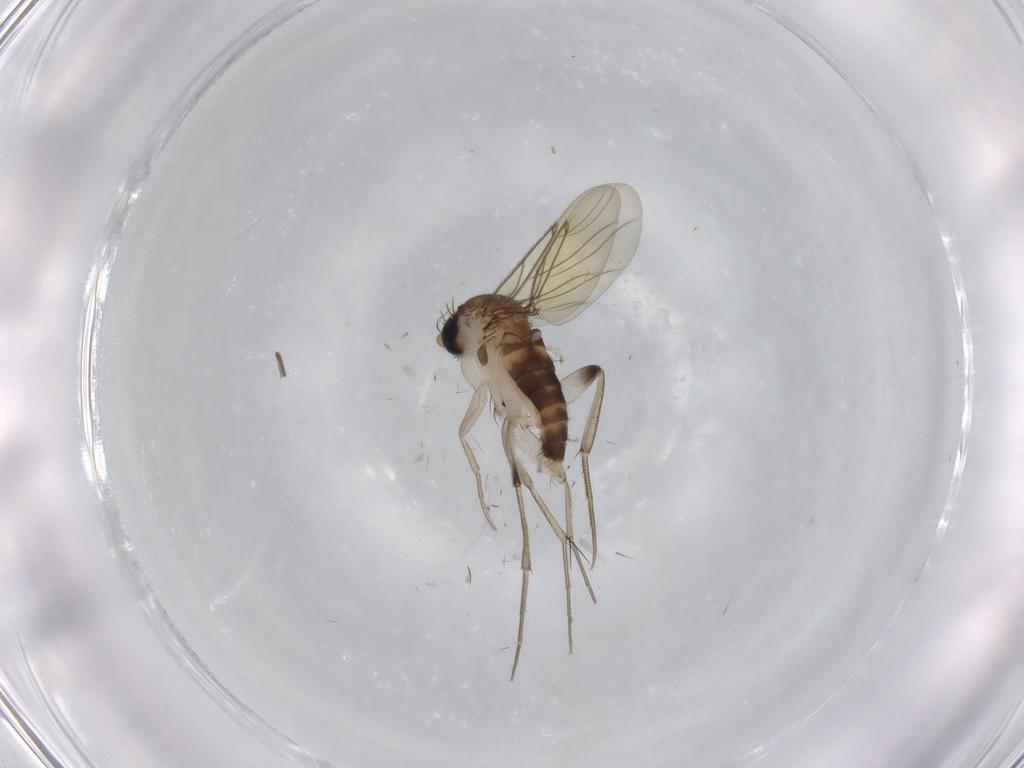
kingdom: Animalia
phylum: Arthropoda
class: Insecta
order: Diptera
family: Phoridae
